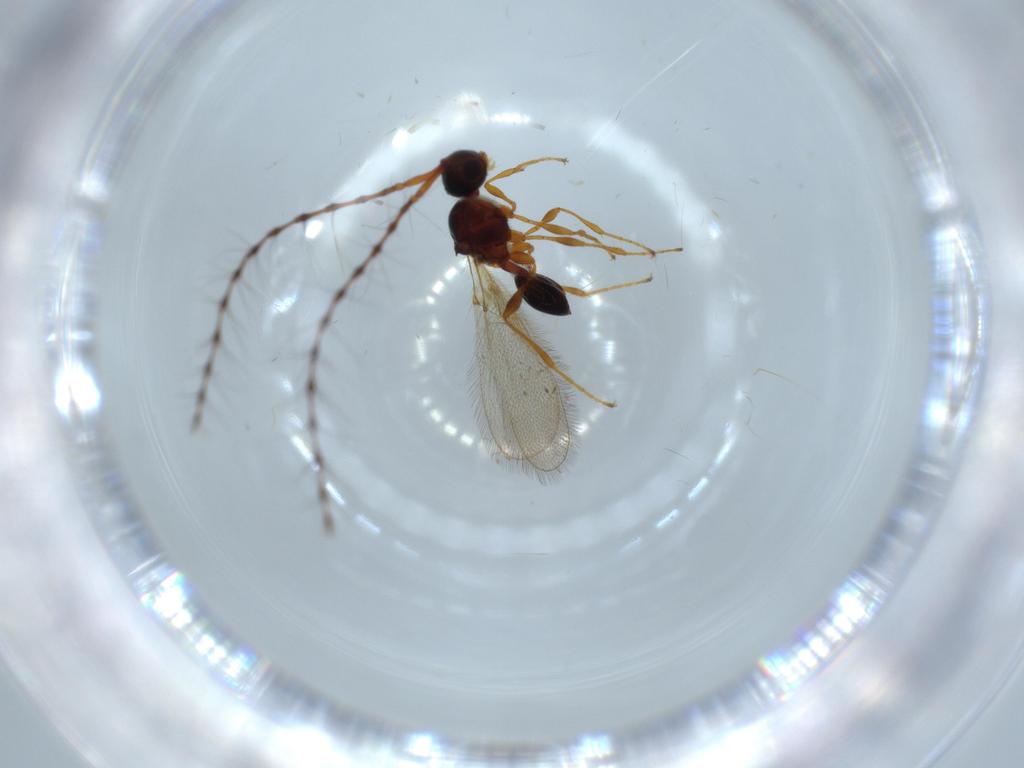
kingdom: Animalia
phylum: Arthropoda
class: Insecta
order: Hymenoptera
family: Diapriidae
